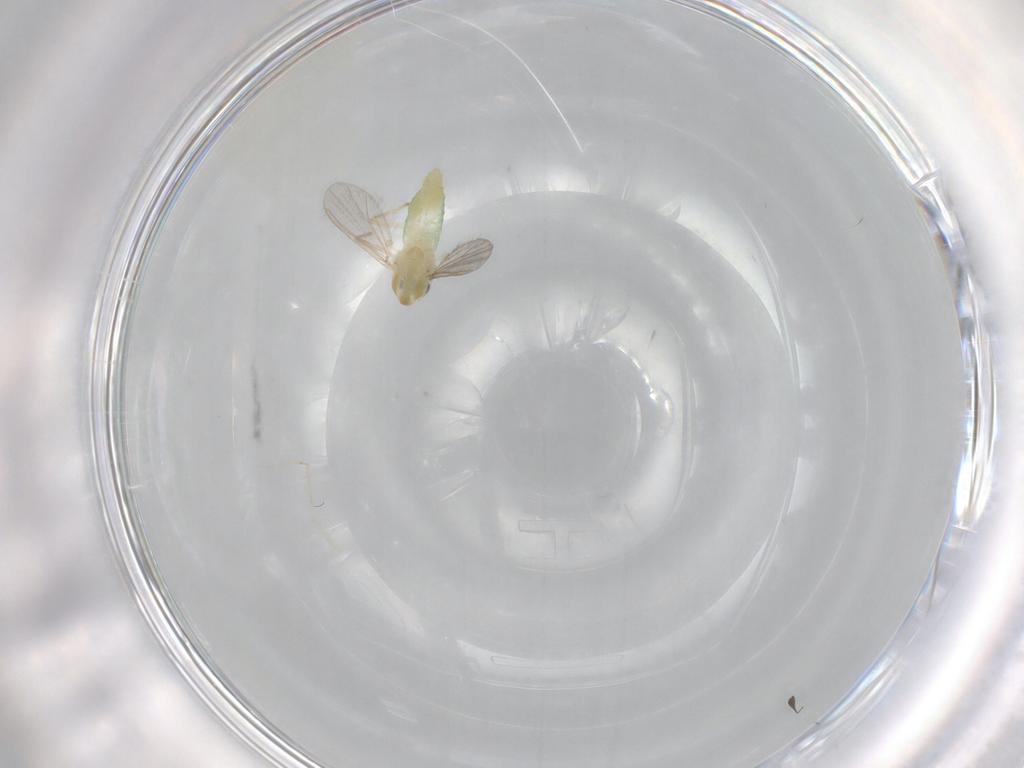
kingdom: Animalia
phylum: Arthropoda
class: Insecta
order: Diptera
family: Chironomidae
